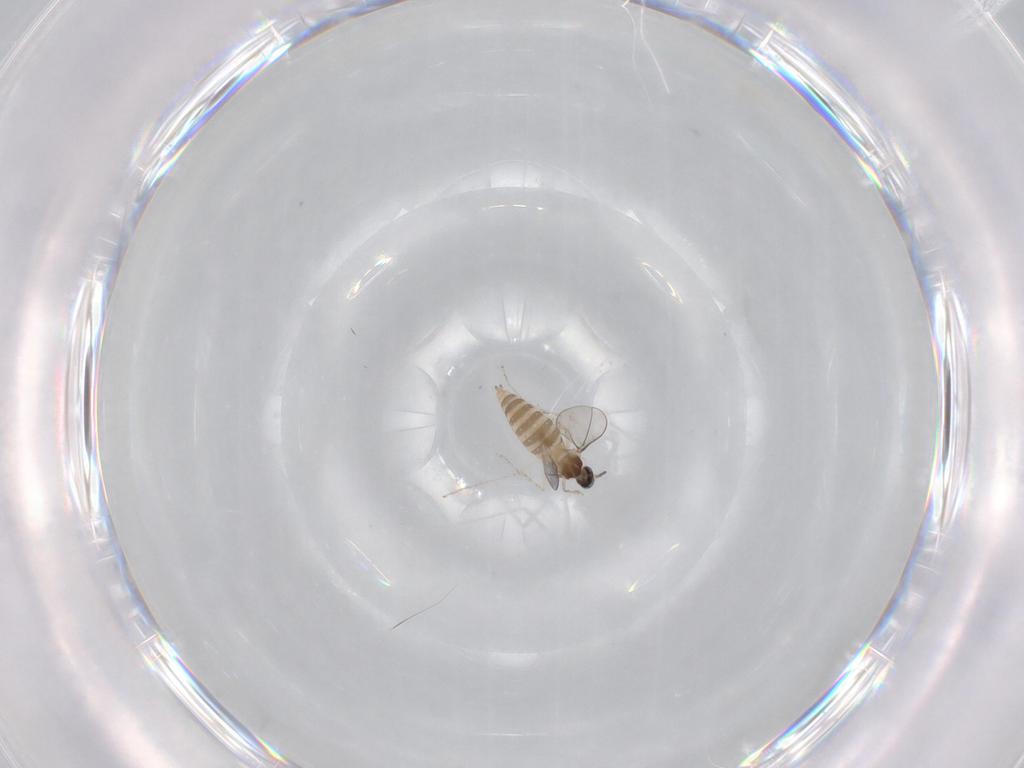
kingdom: Animalia
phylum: Arthropoda
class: Insecta
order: Diptera
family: Cecidomyiidae
